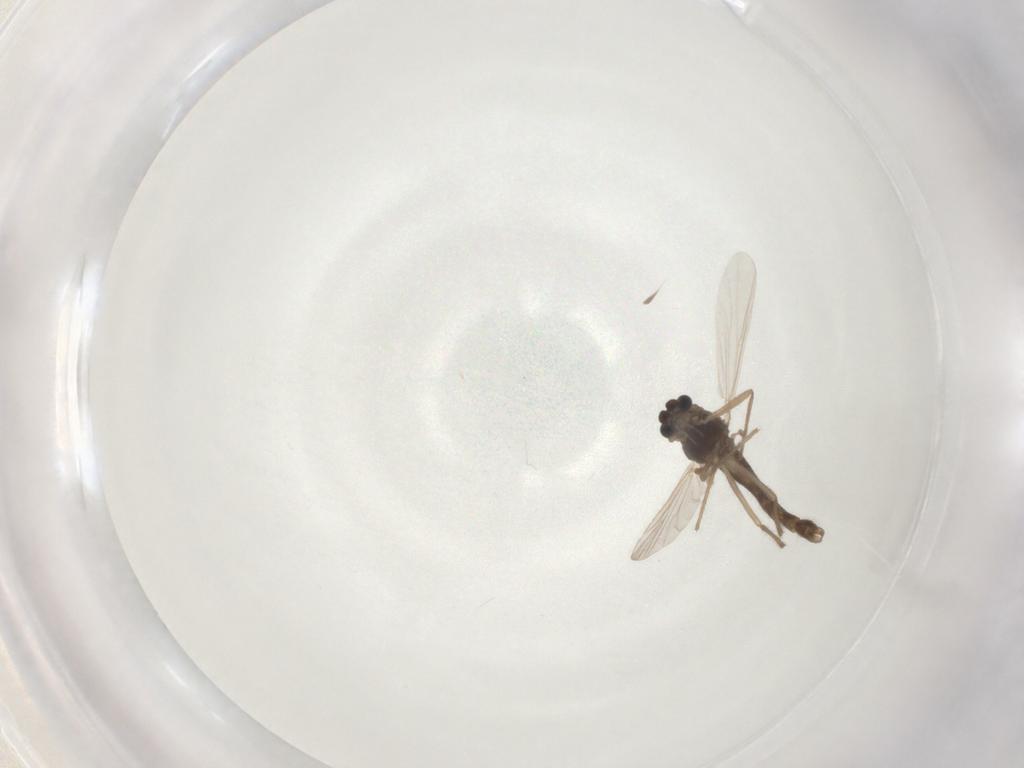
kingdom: Animalia
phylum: Arthropoda
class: Insecta
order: Diptera
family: Chironomidae
